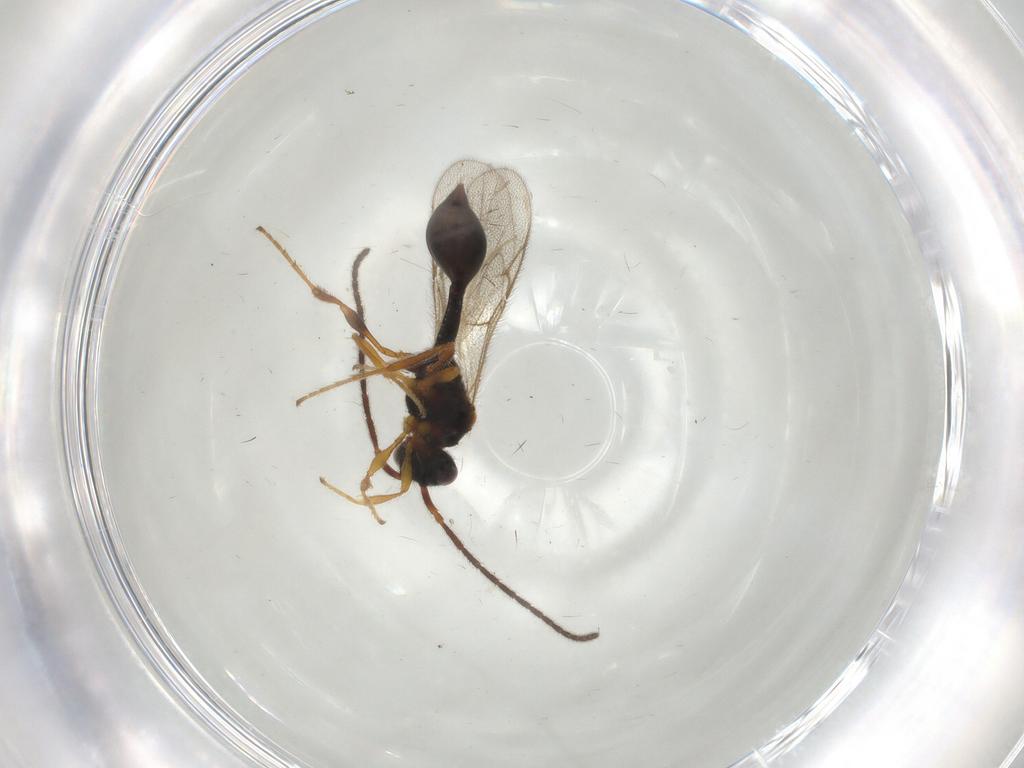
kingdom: Animalia
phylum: Arthropoda
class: Insecta
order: Hymenoptera
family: Diapriidae
